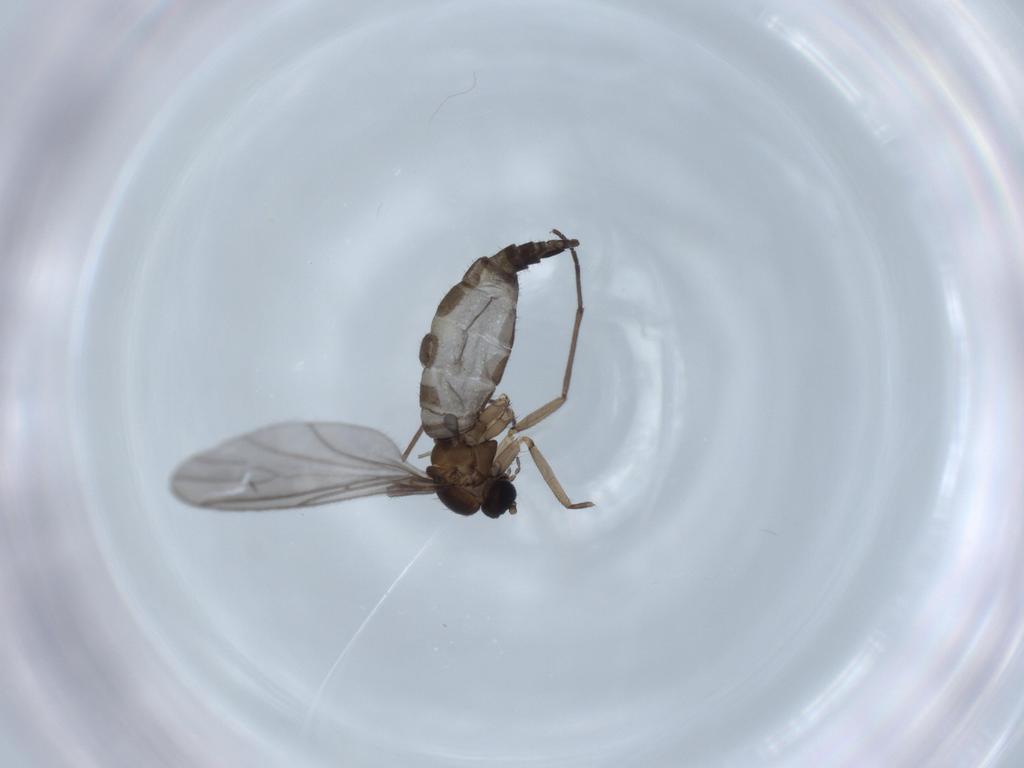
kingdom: Animalia
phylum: Arthropoda
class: Insecta
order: Diptera
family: Sciaridae
